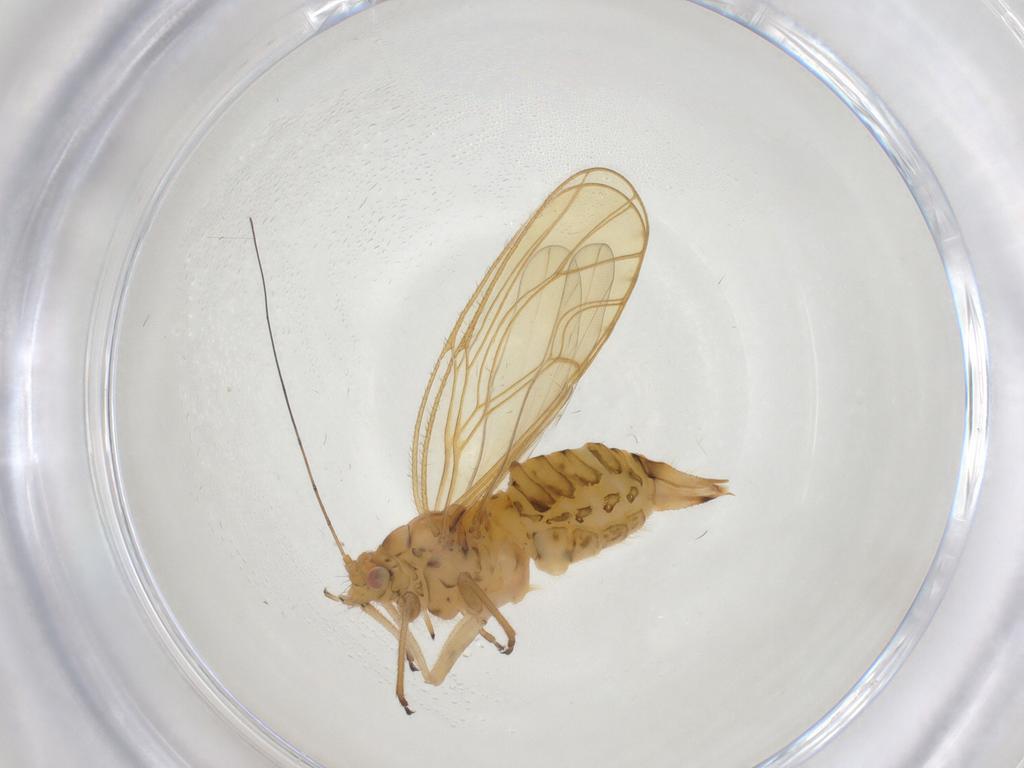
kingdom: Animalia
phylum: Arthropoda
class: Insecta
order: Hemiptera
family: Psyllidae
